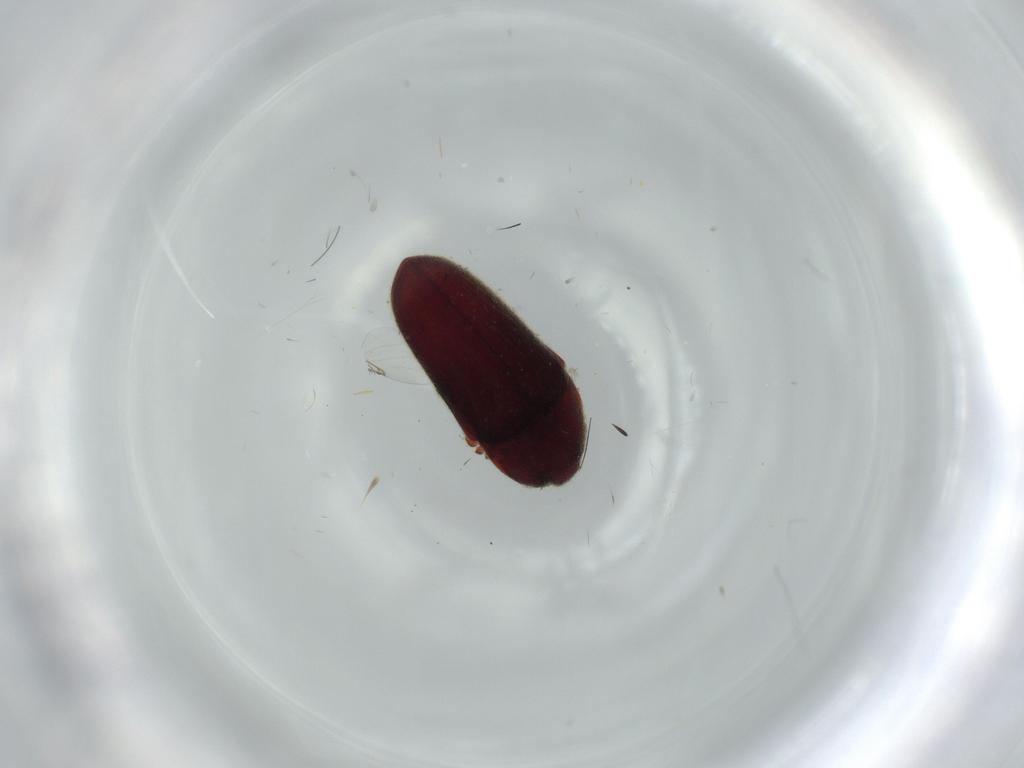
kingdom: Animalia
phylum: Arthropoda
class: Insecta
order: Coleoptera
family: Throscidae
